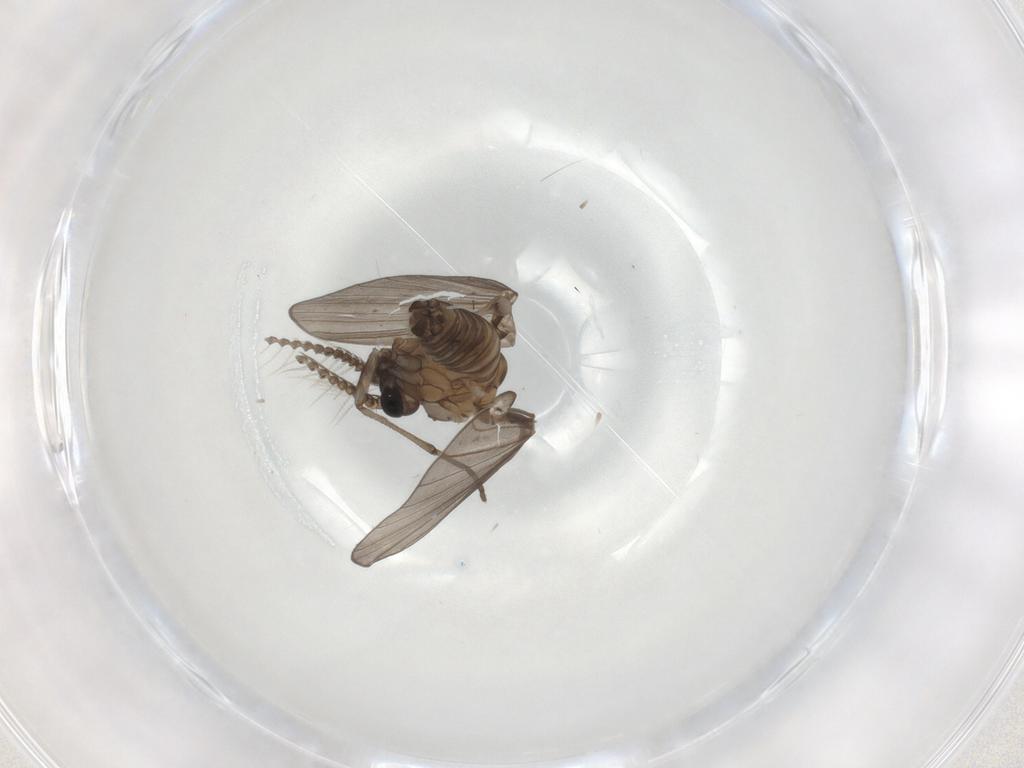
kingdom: Animalia
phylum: Arthropoda
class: Insecta
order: Diptera
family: Psychodidae
